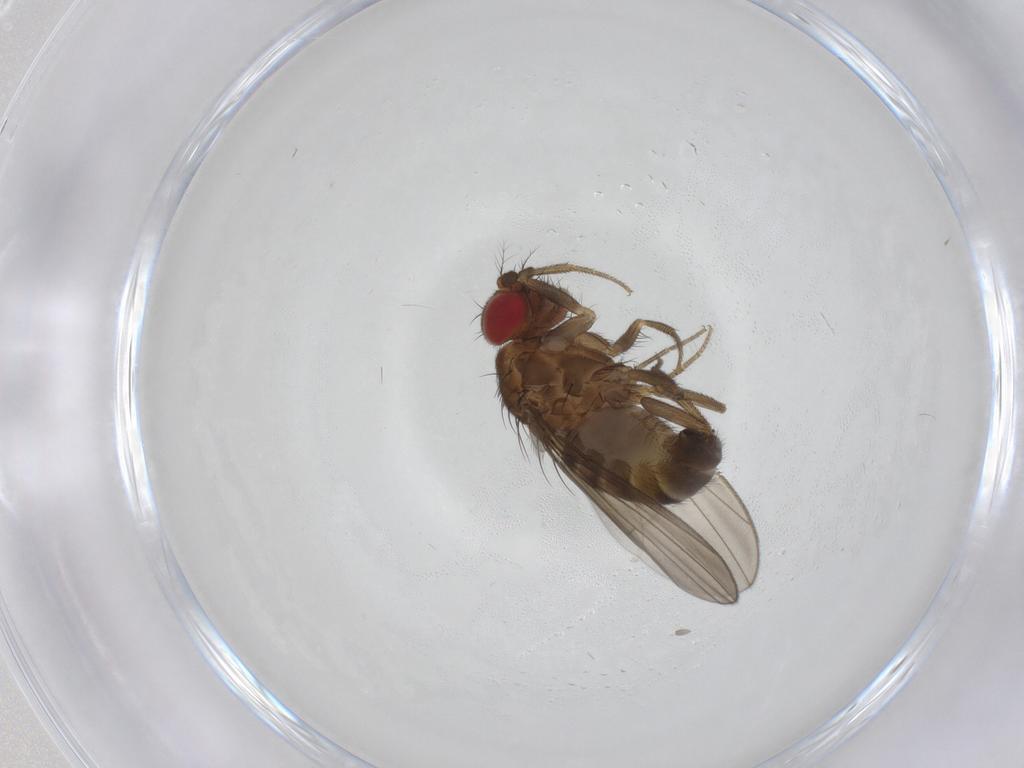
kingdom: Animalia
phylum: Arthropoda
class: Insecta
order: Diptera
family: Drosophilidae
